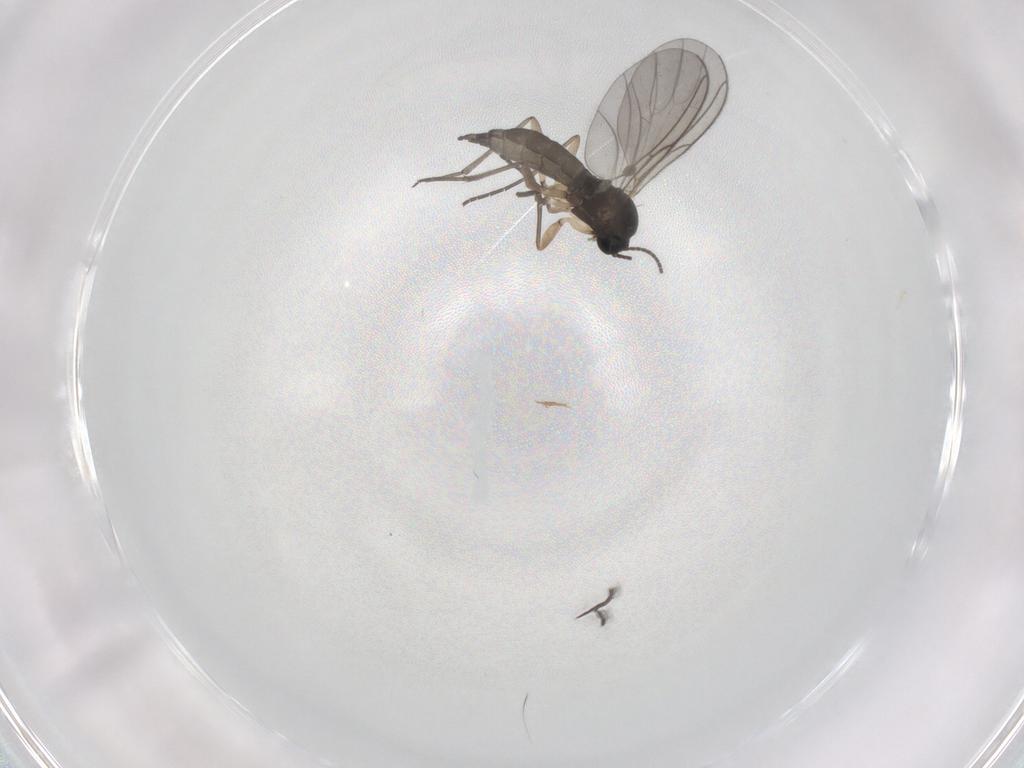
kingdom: Animalia
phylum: Arthropoda
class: Insecta
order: Diptera
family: Sciaridae
